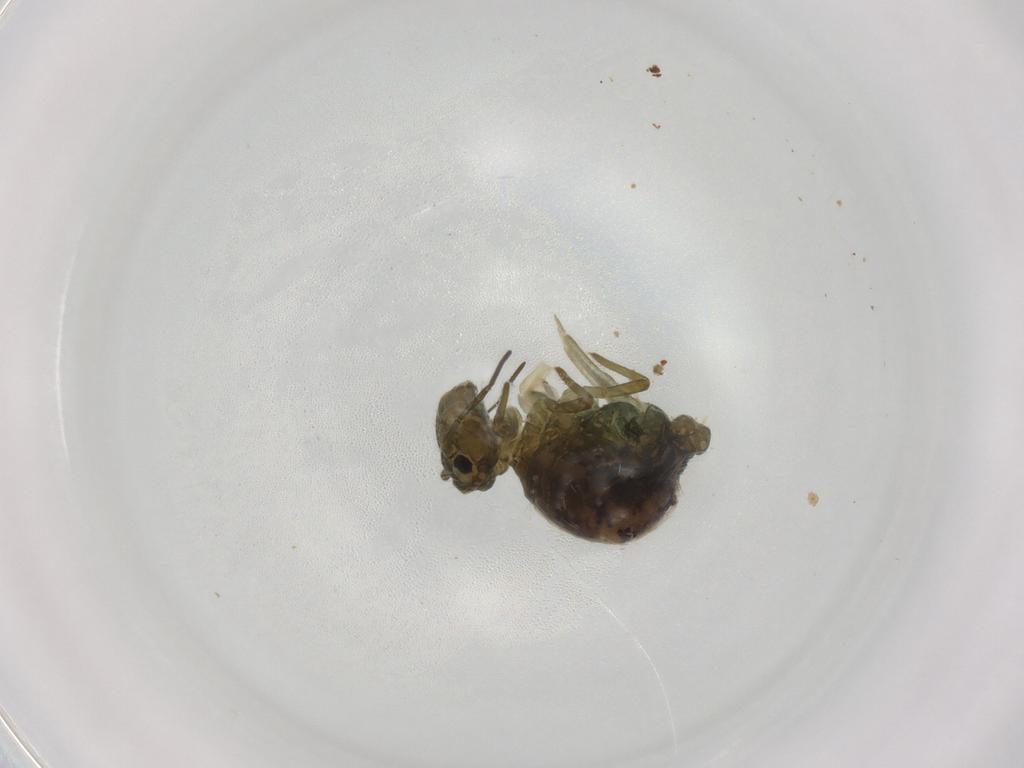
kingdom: Animalia
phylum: Arthropoda
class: Collembola
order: Symphypleona
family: Sminthuridae
